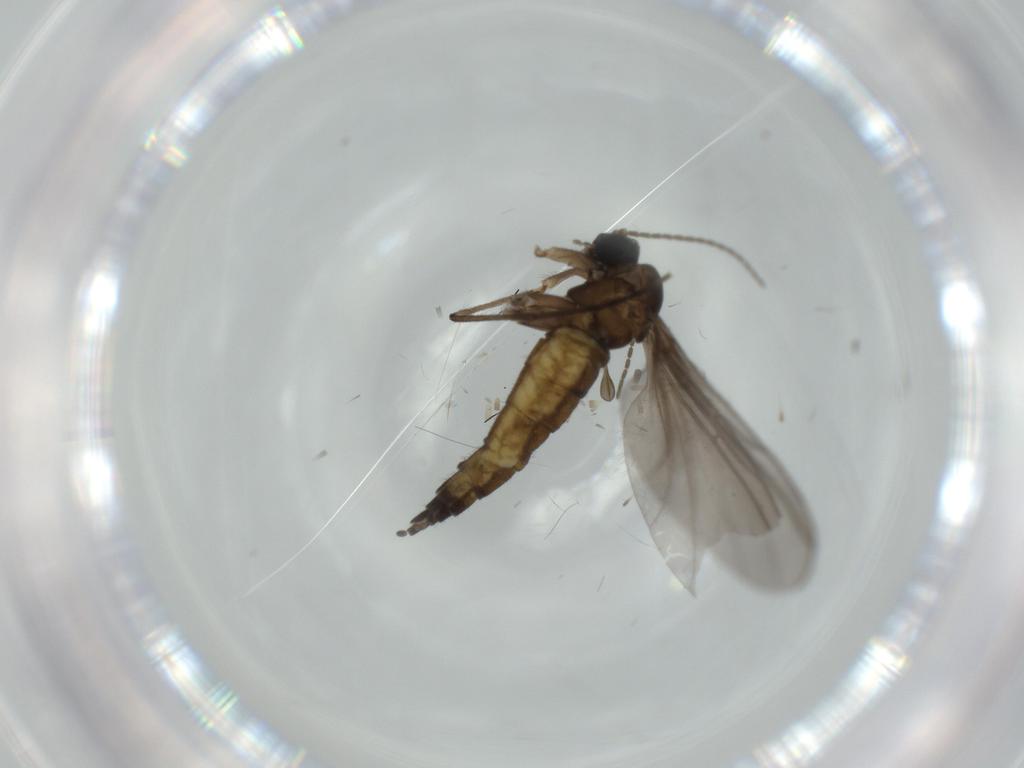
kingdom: Animalia
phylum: Arthropoda
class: Insecta
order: Diptera
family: Sciaridae
